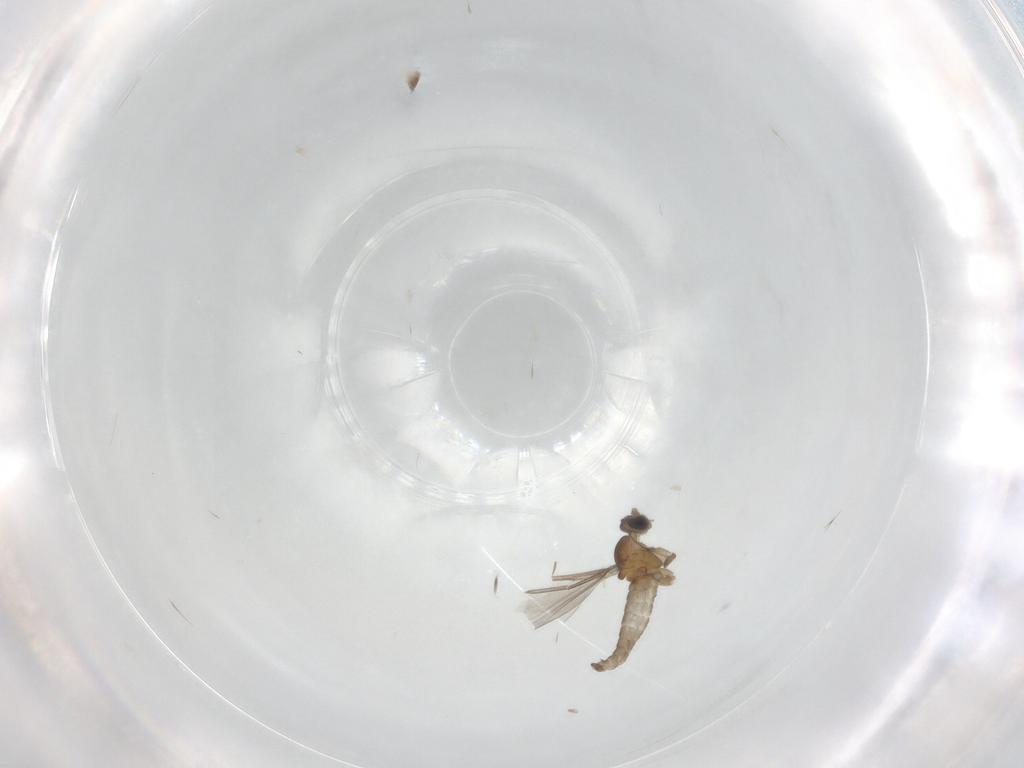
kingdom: Animalia
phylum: Arthropoda
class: Insecta
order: Diptera
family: Cecidomyiidae
